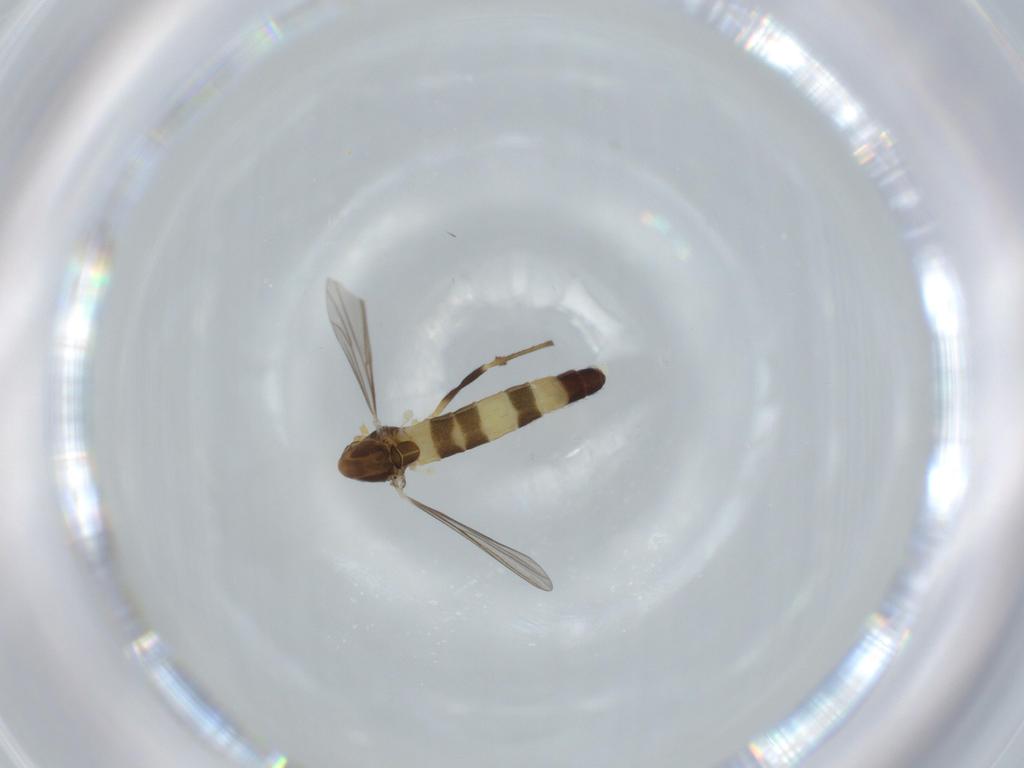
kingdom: Animalia
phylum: Arthropoda
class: Insecta
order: Diptera
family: Chironomidae
